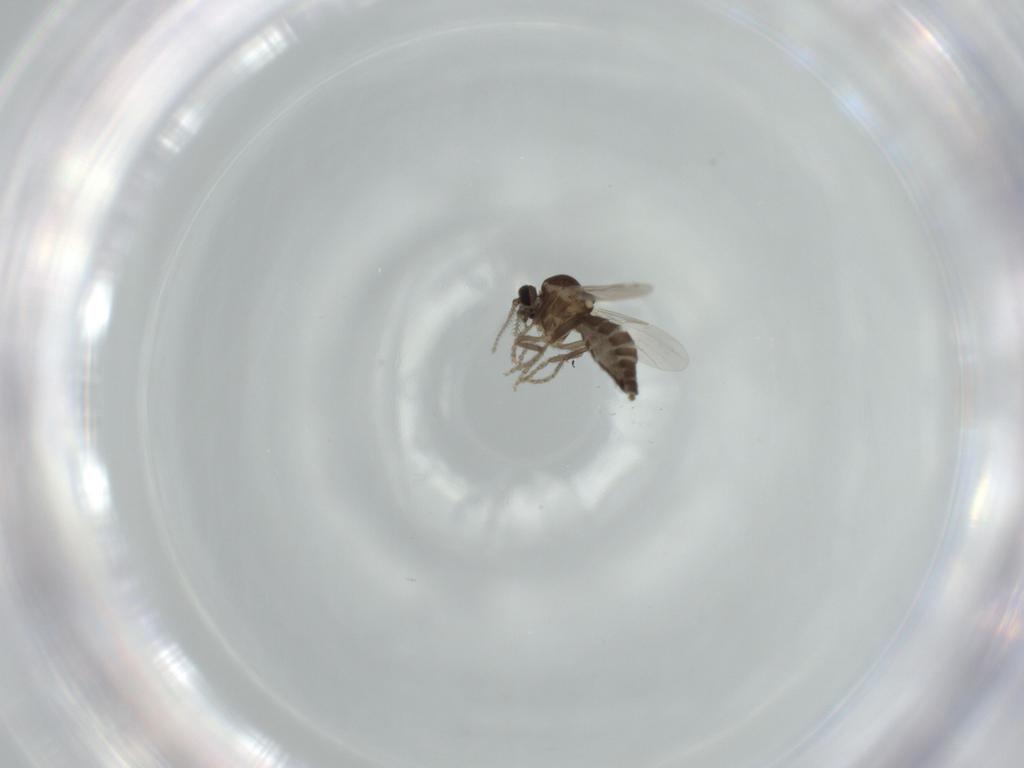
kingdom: Animalia
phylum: Arthropoda
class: Insecta
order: Diptera
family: Ceratopogonidae
